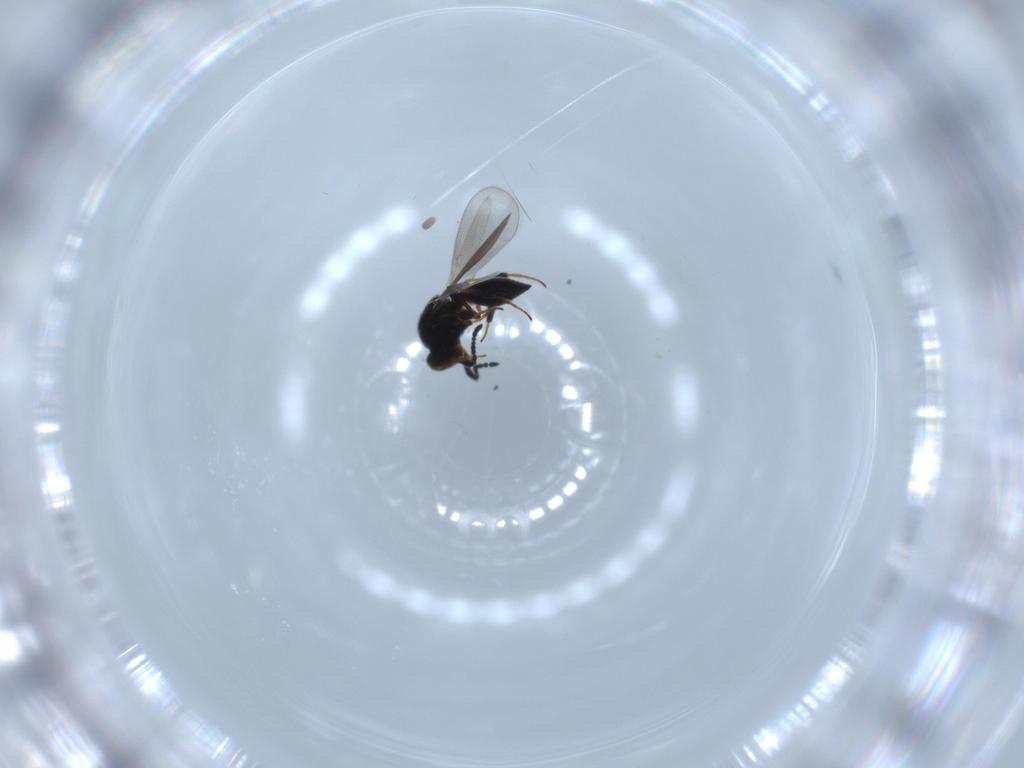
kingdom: Animalia
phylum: Arthropoda
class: Insecta
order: Hymenoptera
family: Platygastridae
